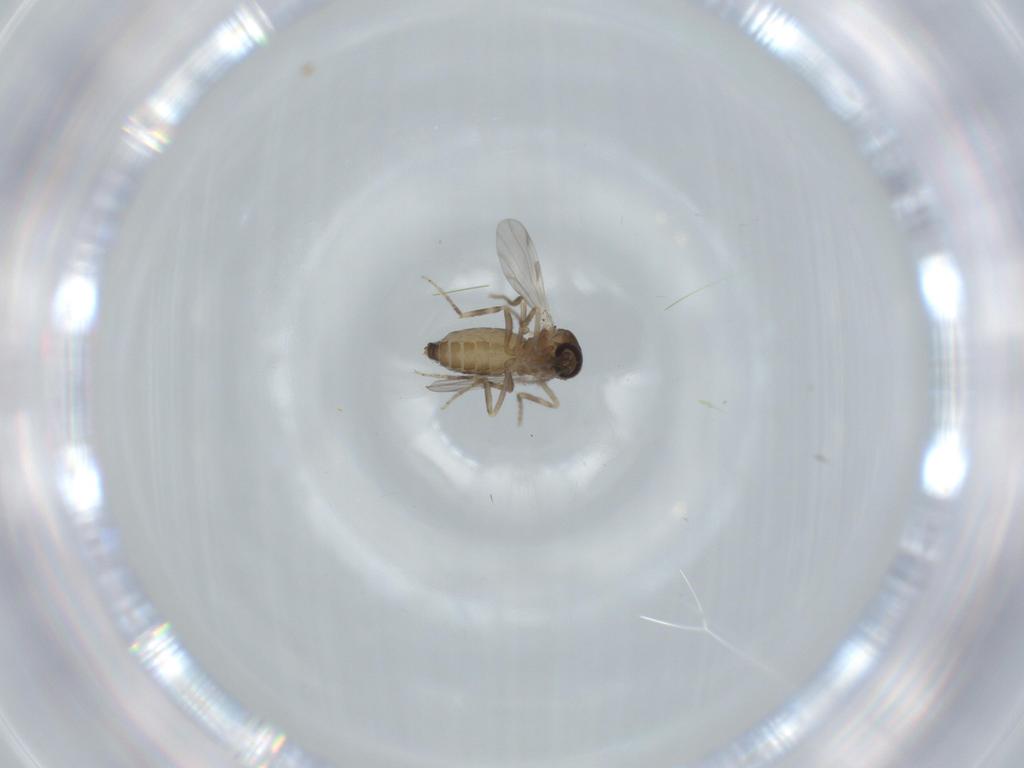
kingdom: Animalia
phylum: Arthropoda
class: Insecta
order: Diptera
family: Ceratopogonidae
